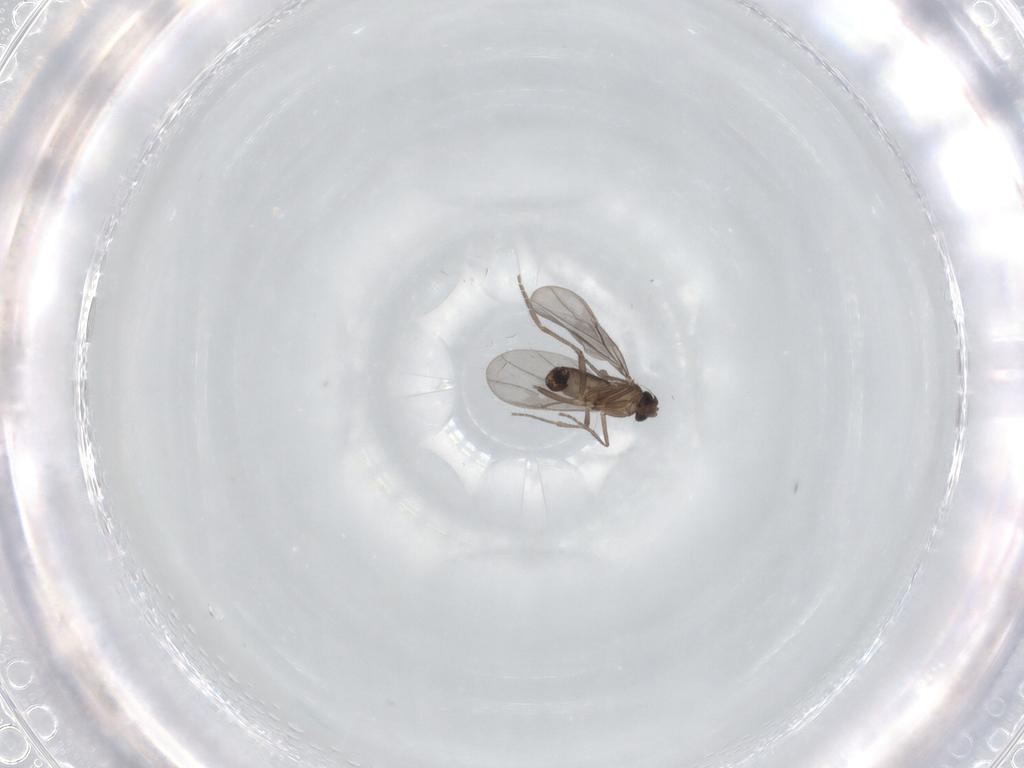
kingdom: Animalia
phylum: Arthropoda
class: Insecta
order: Diptera
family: Phoridae
